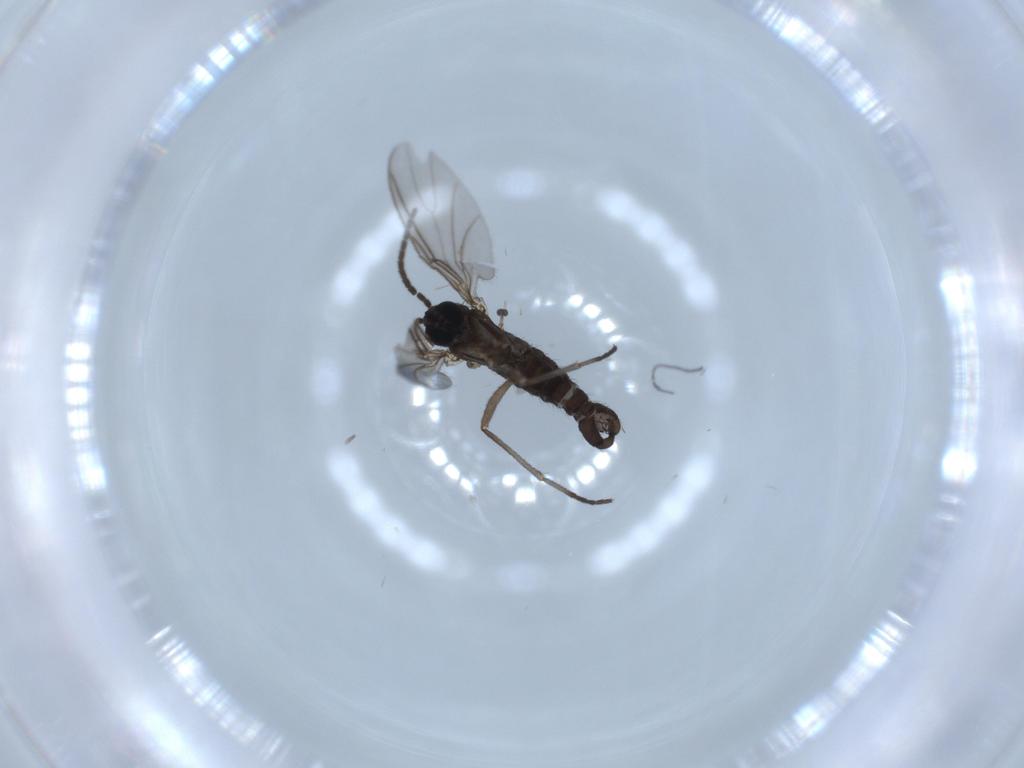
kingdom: Animalia
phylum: Arthropoda
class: Insecta
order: Diptera
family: Sciaridae
